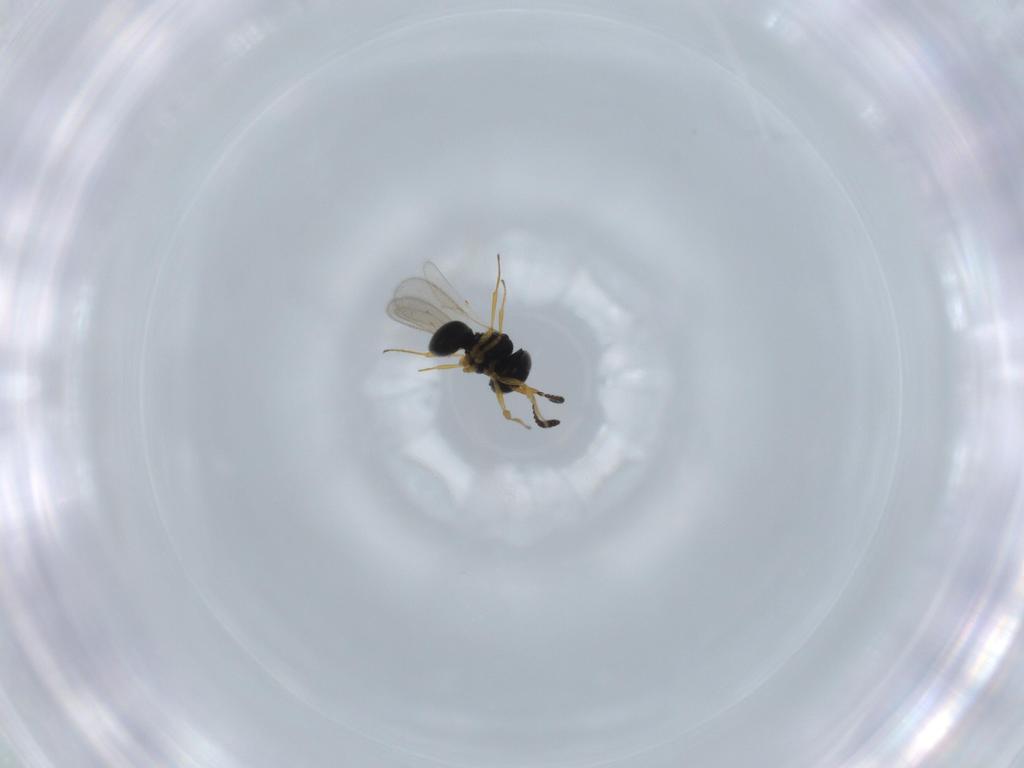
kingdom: Animalia
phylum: Arthropoda
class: Insecta
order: Hymenoptera
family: Scelionidae
